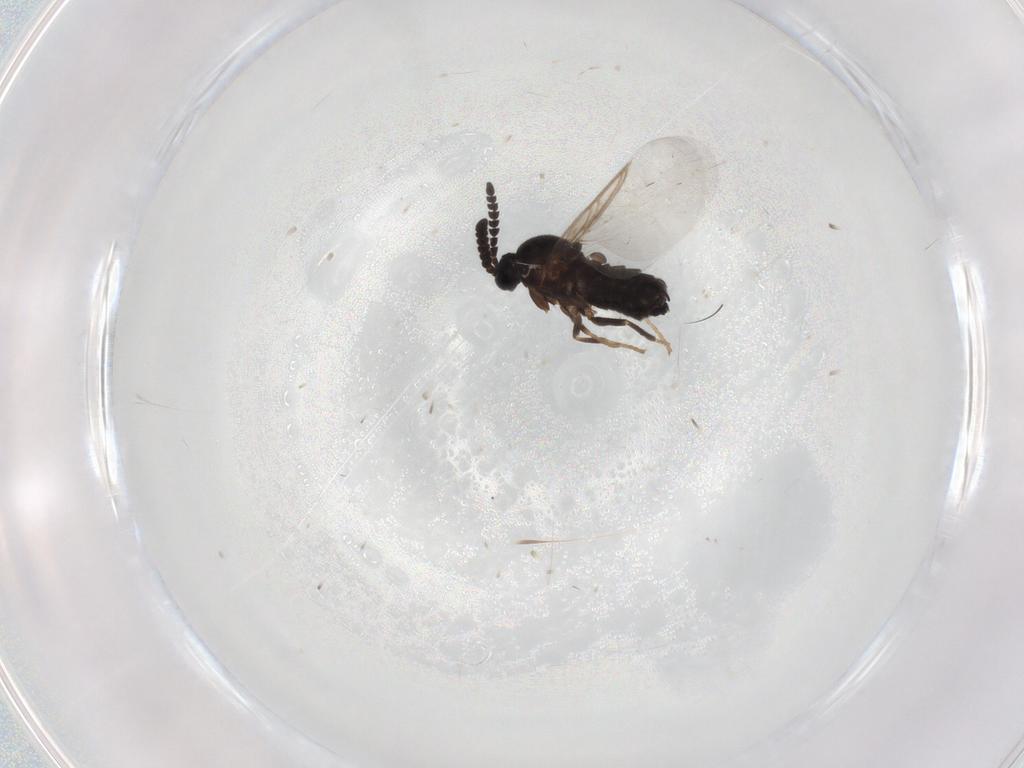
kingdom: Animalia
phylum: Arthropoda
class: Insecta
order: Diptera
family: Scatopsidae
